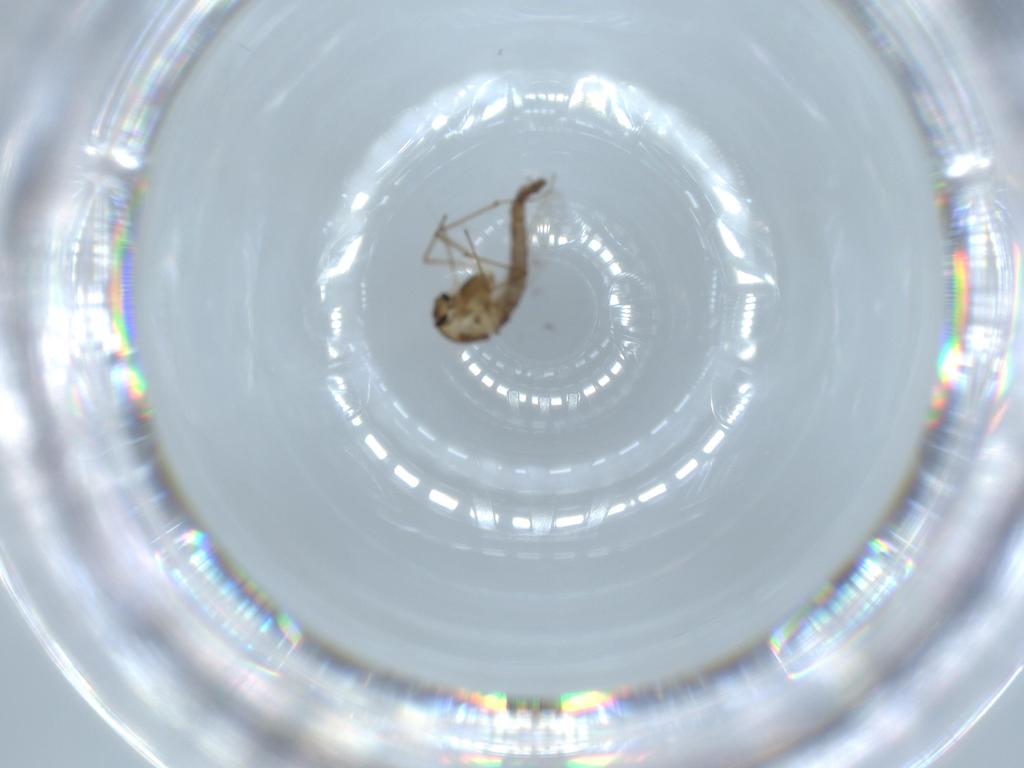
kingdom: Animalia
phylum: Arthropoda
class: Insecta
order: Diptera
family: Chironomidae
